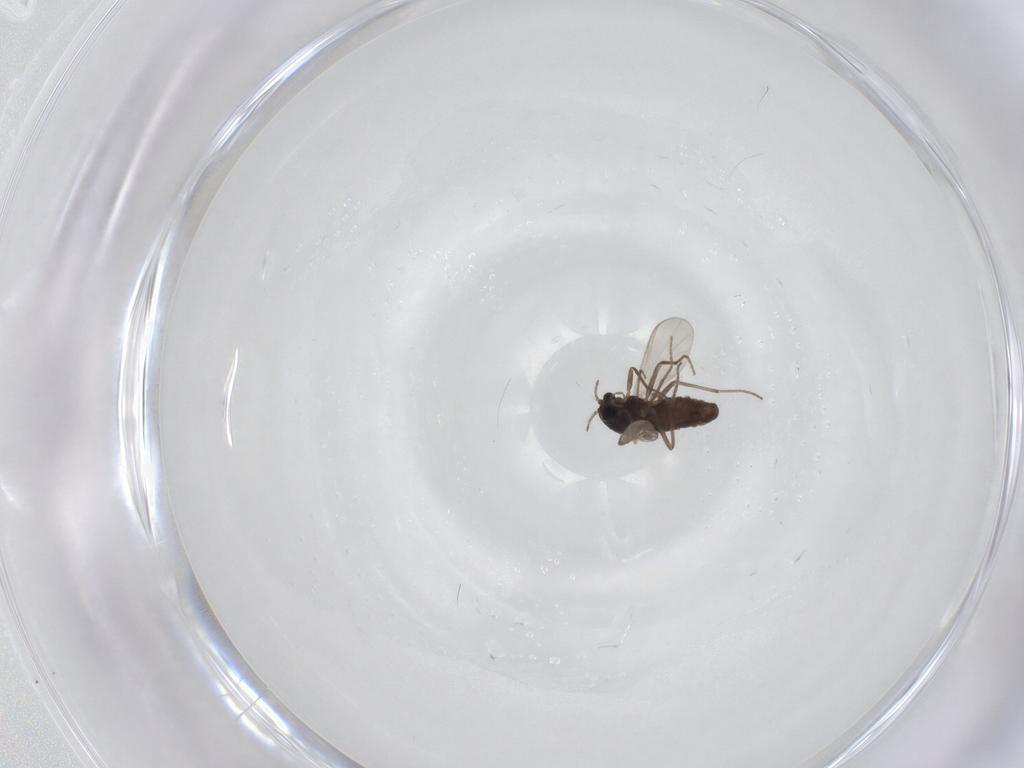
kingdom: Animalia
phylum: Arthropoda
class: Insecta
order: Diptera
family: Chironomidae
